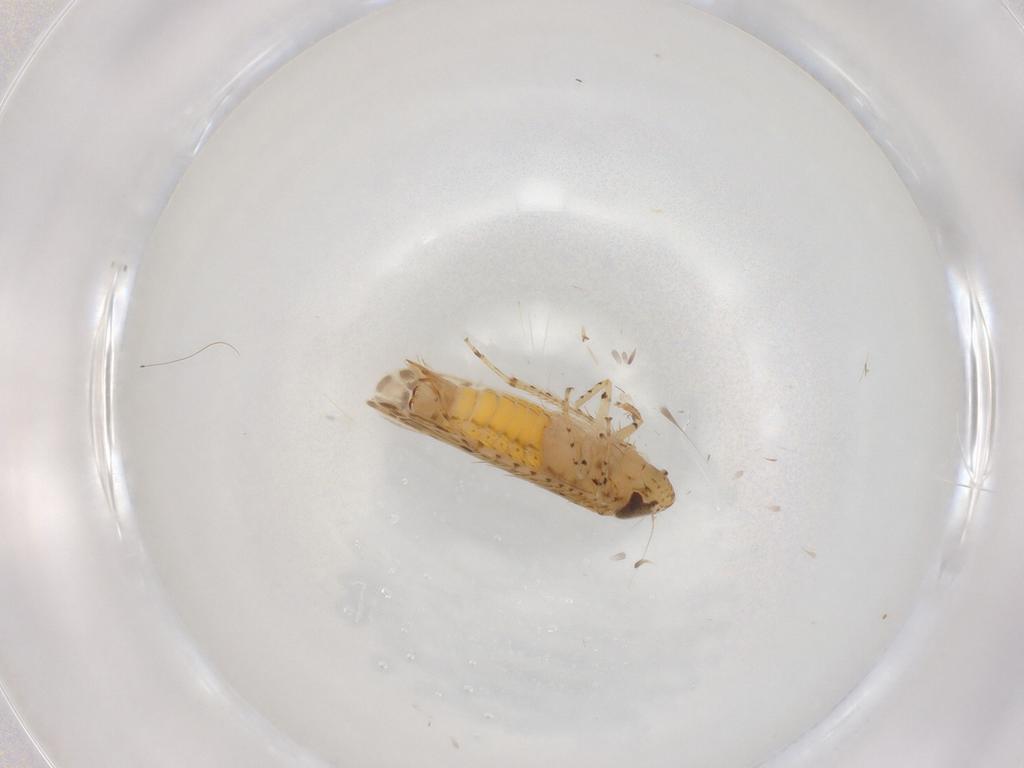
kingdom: Animalia
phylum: Arthropoda
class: Insecta
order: Hemiptera
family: Cicadellidae
